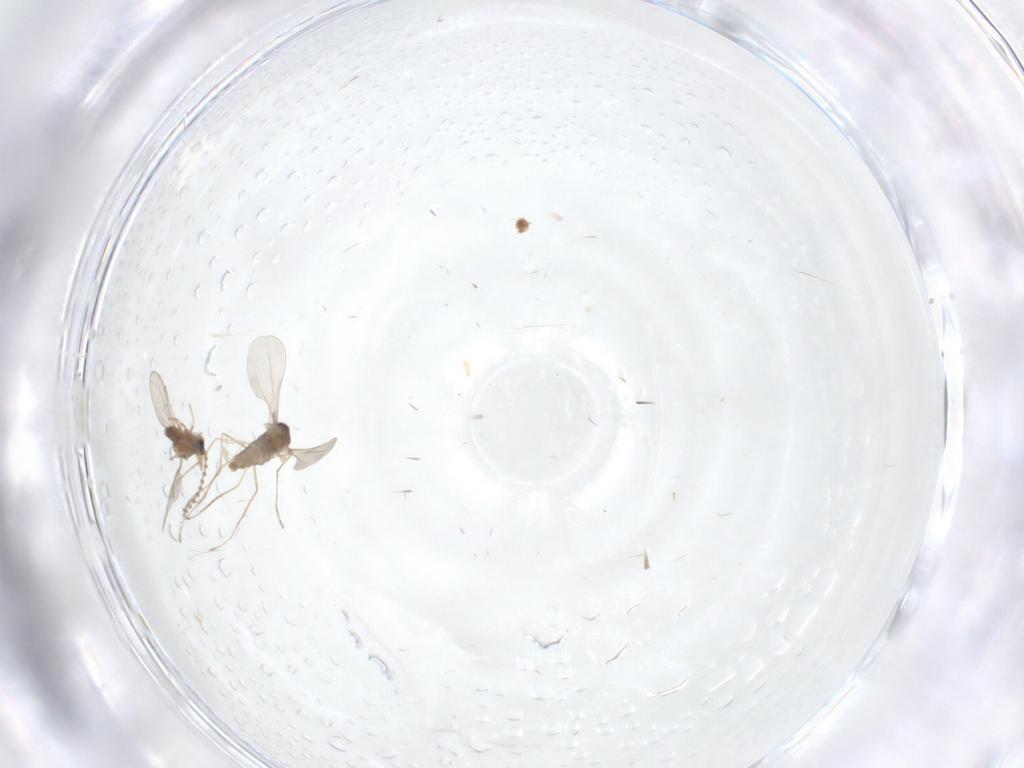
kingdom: Animalia
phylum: Arthropoda
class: Insecta
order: Diptera
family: Cecidomyiidae
